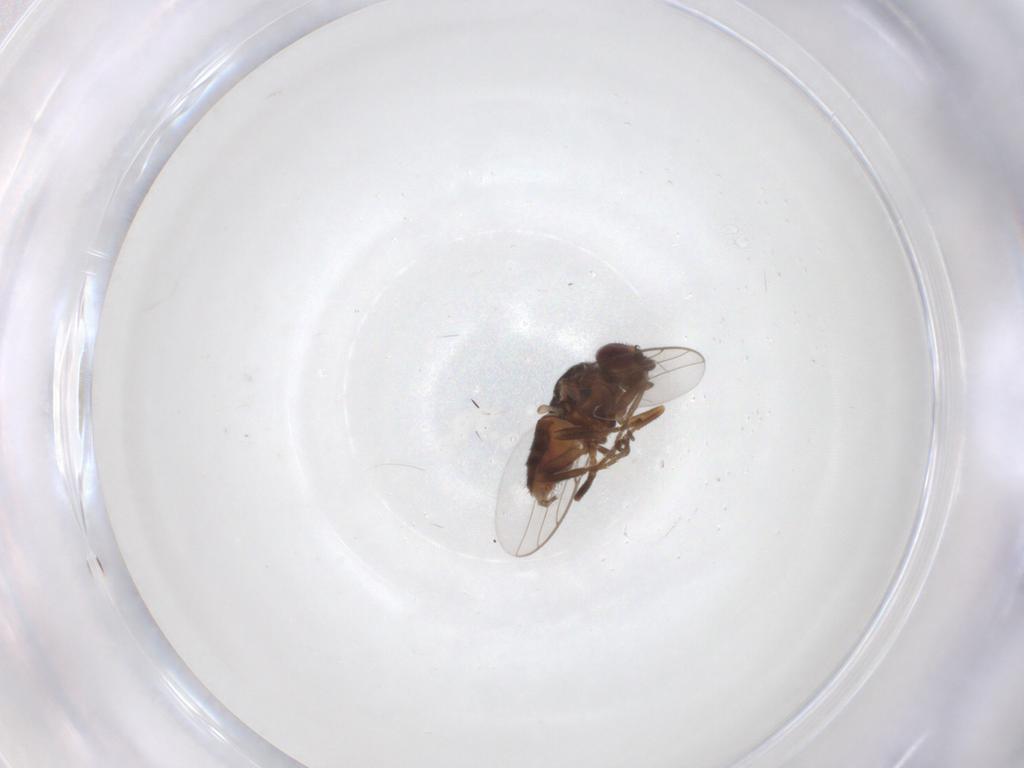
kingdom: Animalia
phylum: Arthropoda
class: Insecta
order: Diptera
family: Chloropidae
